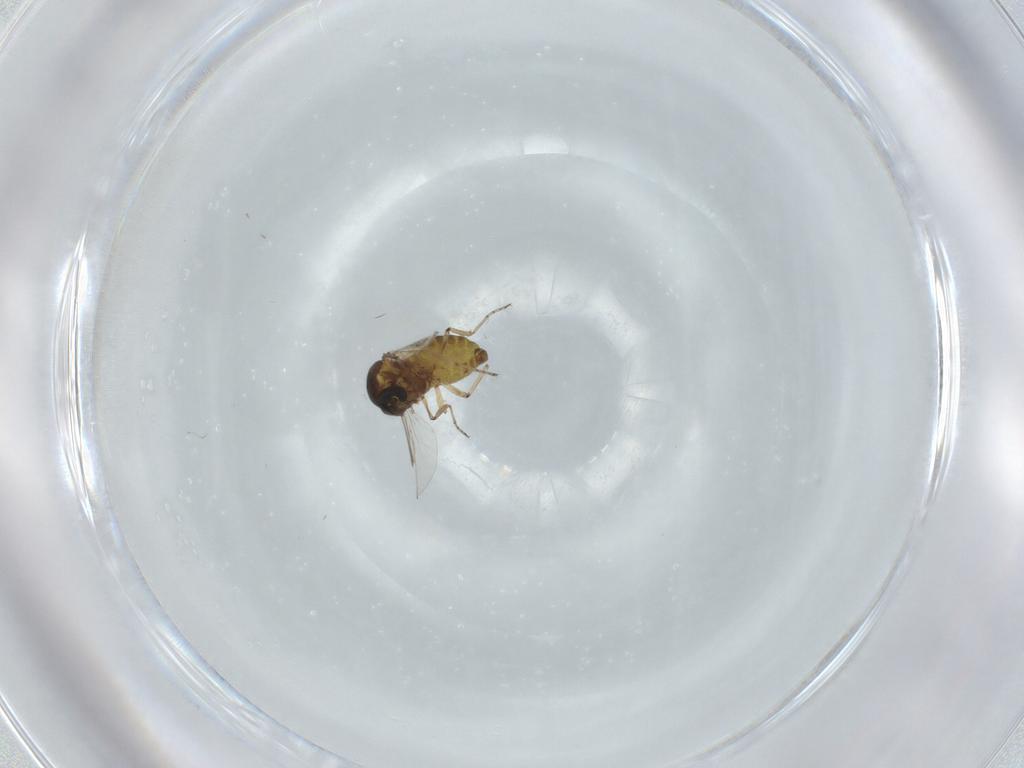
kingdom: Animalia
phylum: Arthropoda
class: Insecta
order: Diptera
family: Ceratopogonidae
